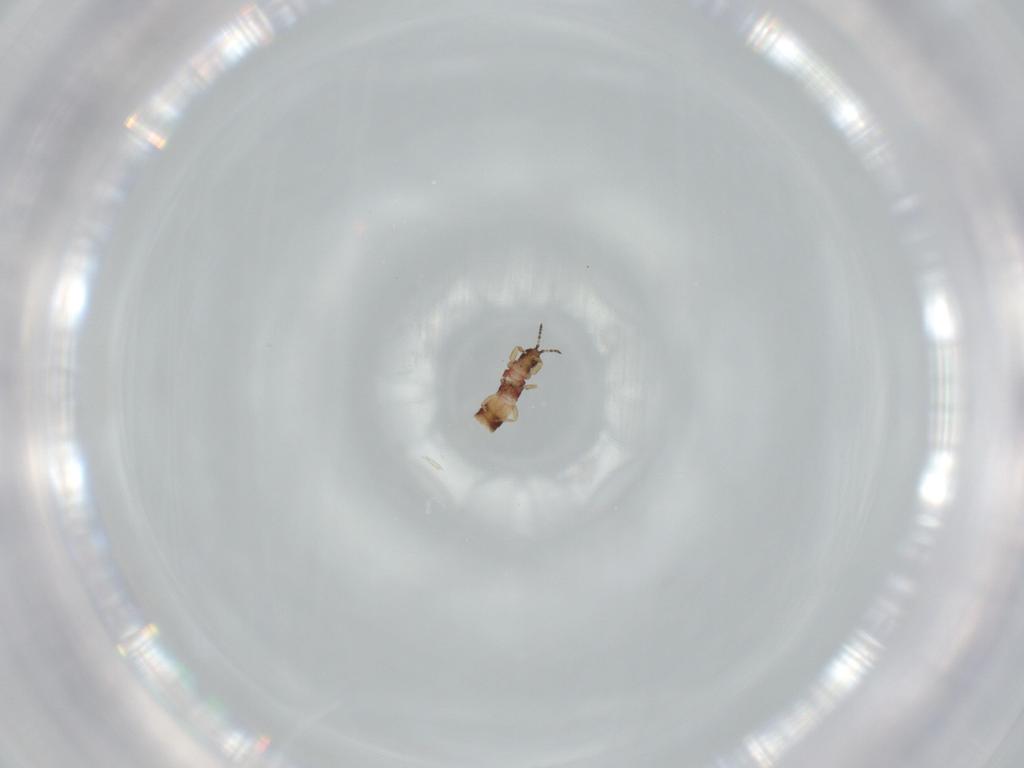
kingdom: Animalia
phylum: Arthropoda
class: Insecta
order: Thysanoptera
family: Phlaeothripidae
